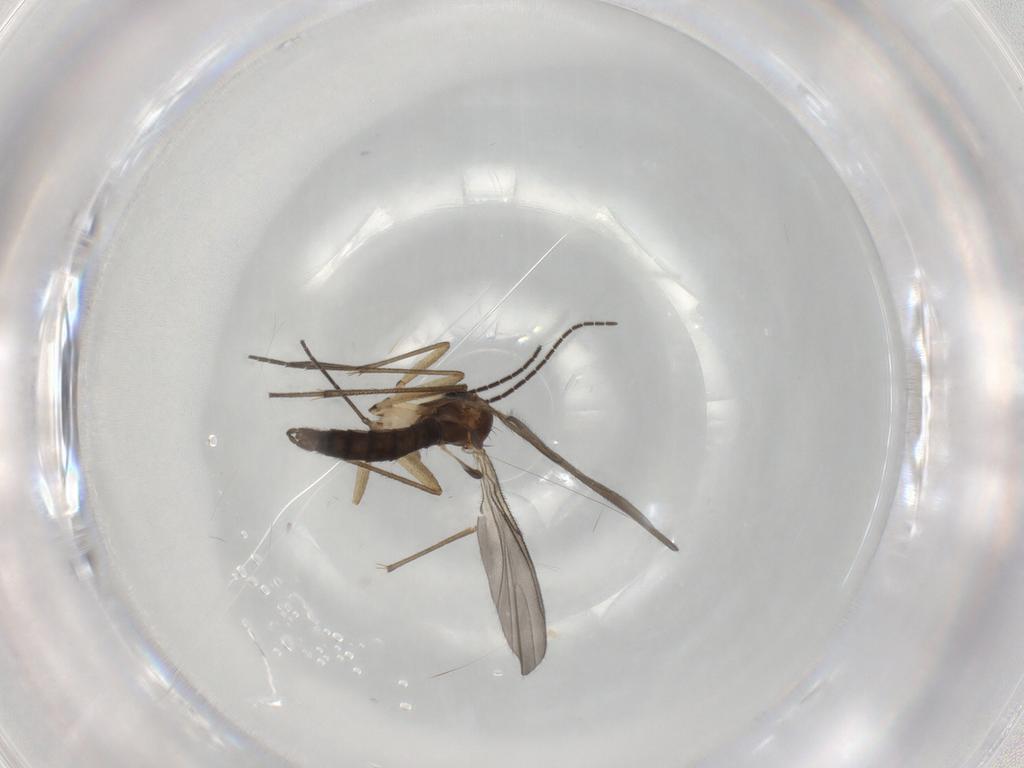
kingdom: Animalia
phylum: Arthropoda
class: Insecta
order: Diptera
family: Sciaridae
